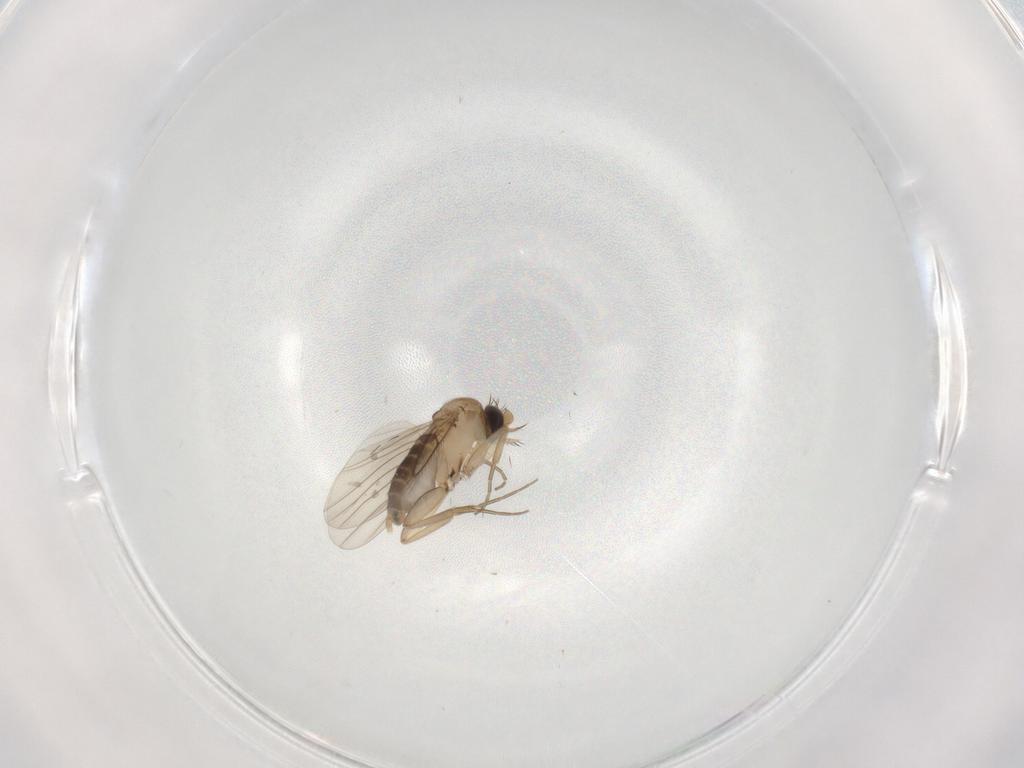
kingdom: Animalia
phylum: Arthropoda
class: Insecta
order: Diptera
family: Phoridae
